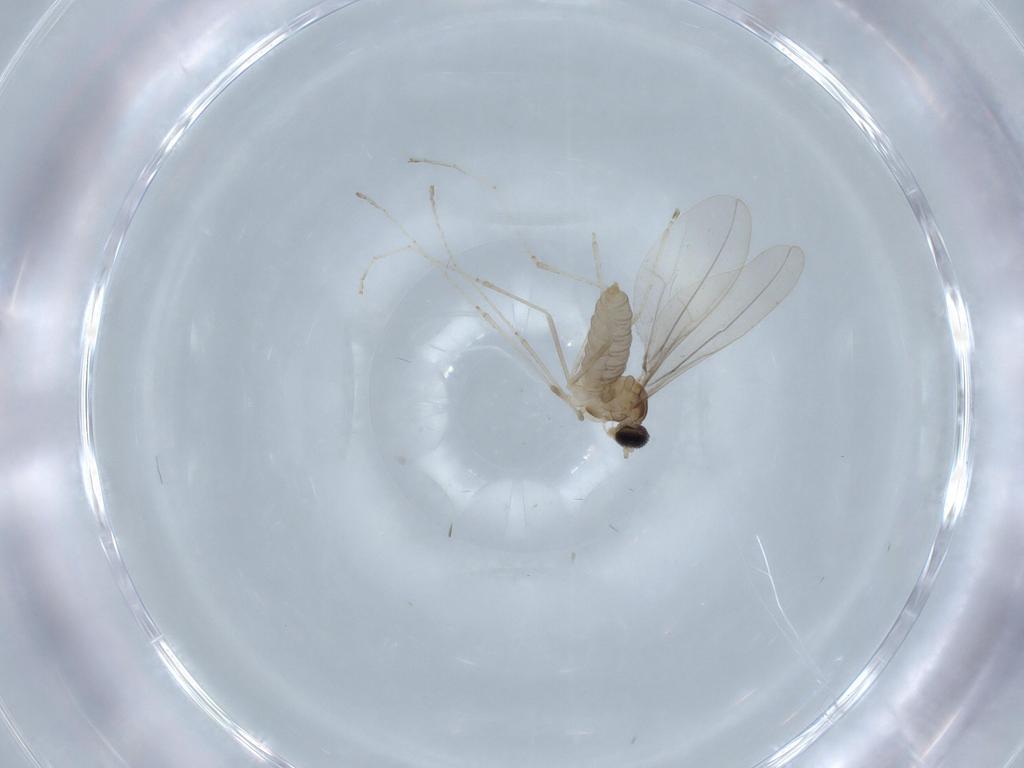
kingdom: Animalia
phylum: Arthropoda
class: Insecta
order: Diptera
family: Cecidomyiidae
